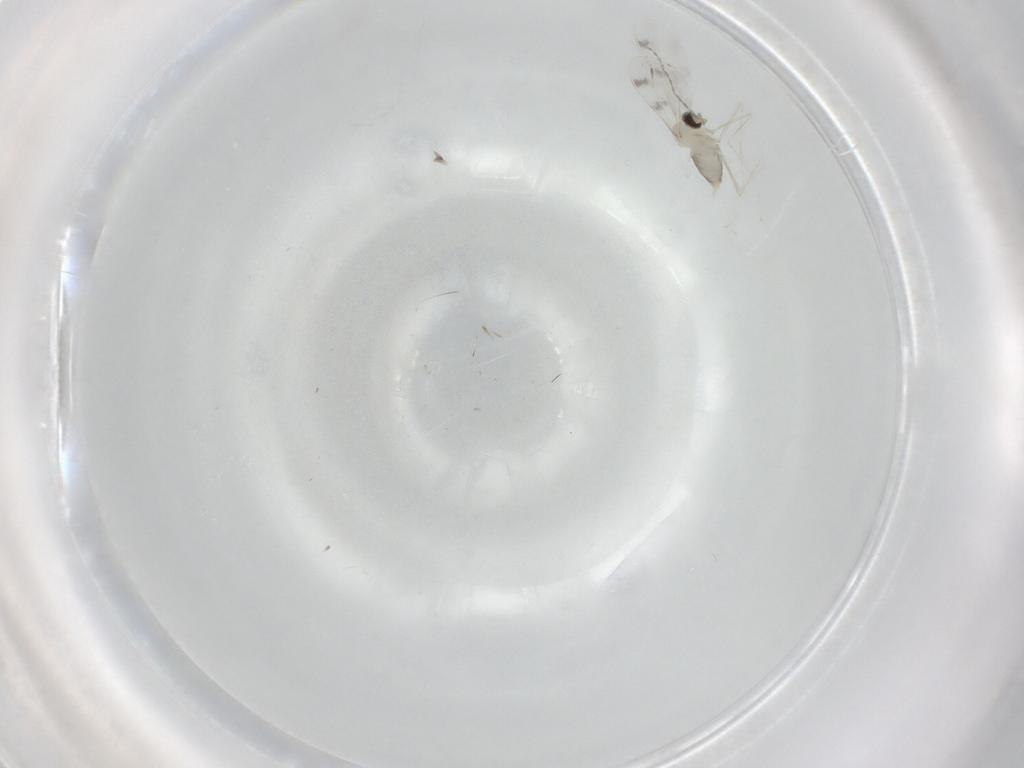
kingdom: Animalia
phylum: Arthropoda
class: Insecta
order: Diptera
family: Cecidomyiidae
